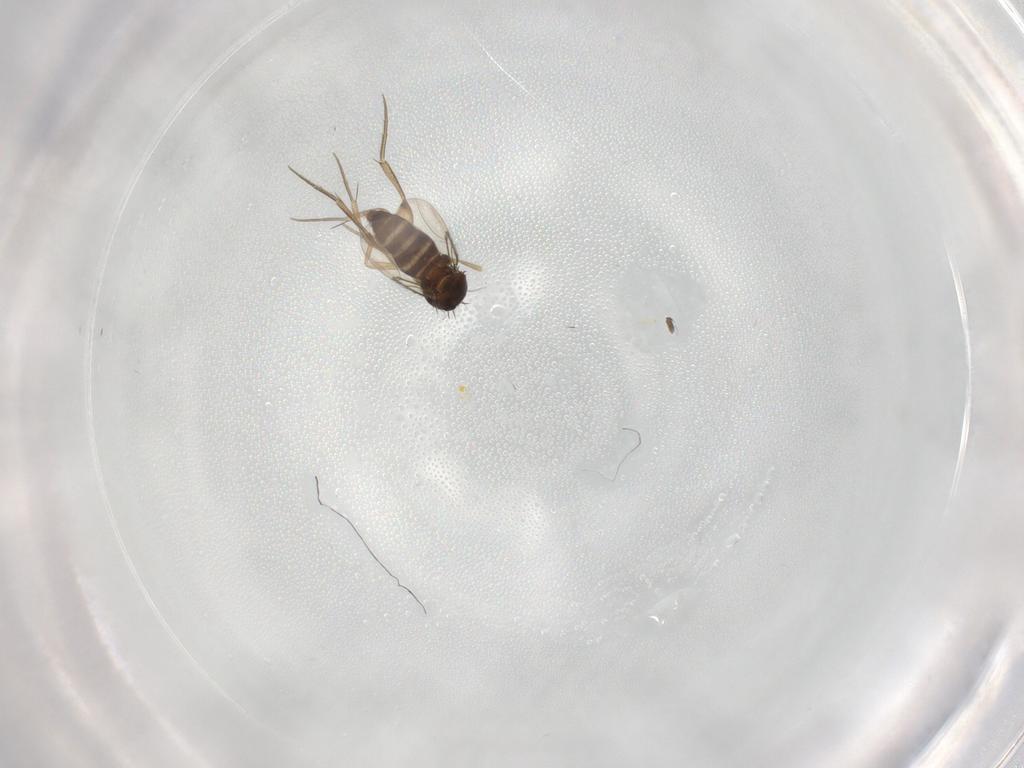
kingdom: Animalia
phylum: Arthropoda
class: Insecta
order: Diptera
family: Phoridae
